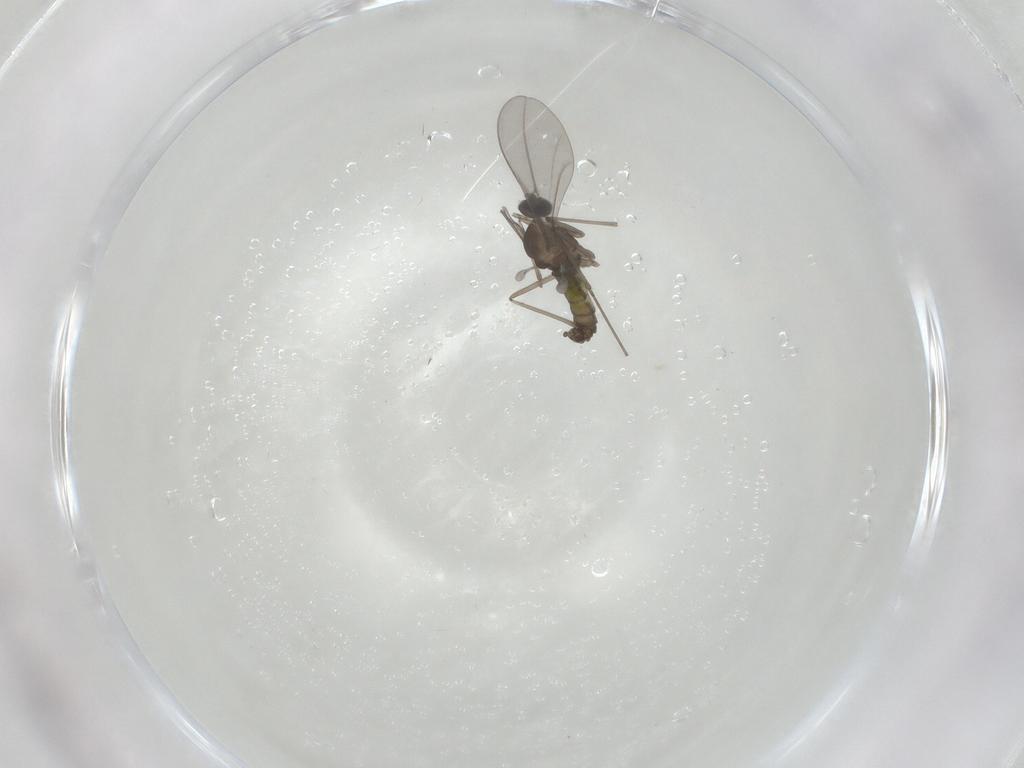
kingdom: Animalia
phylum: Arthropoda
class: Insecta
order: Diptera
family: Cecidomyiidae
